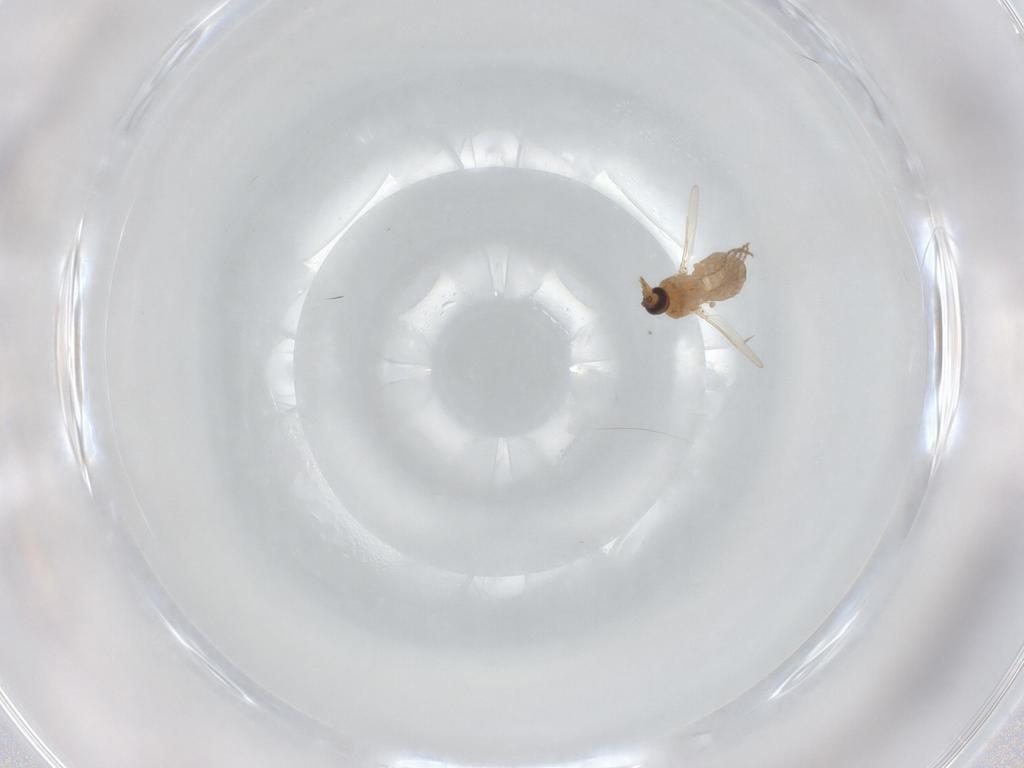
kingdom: Animalia
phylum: Arthropoda
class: Insecta
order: Diptera
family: Ceratopogonidae
